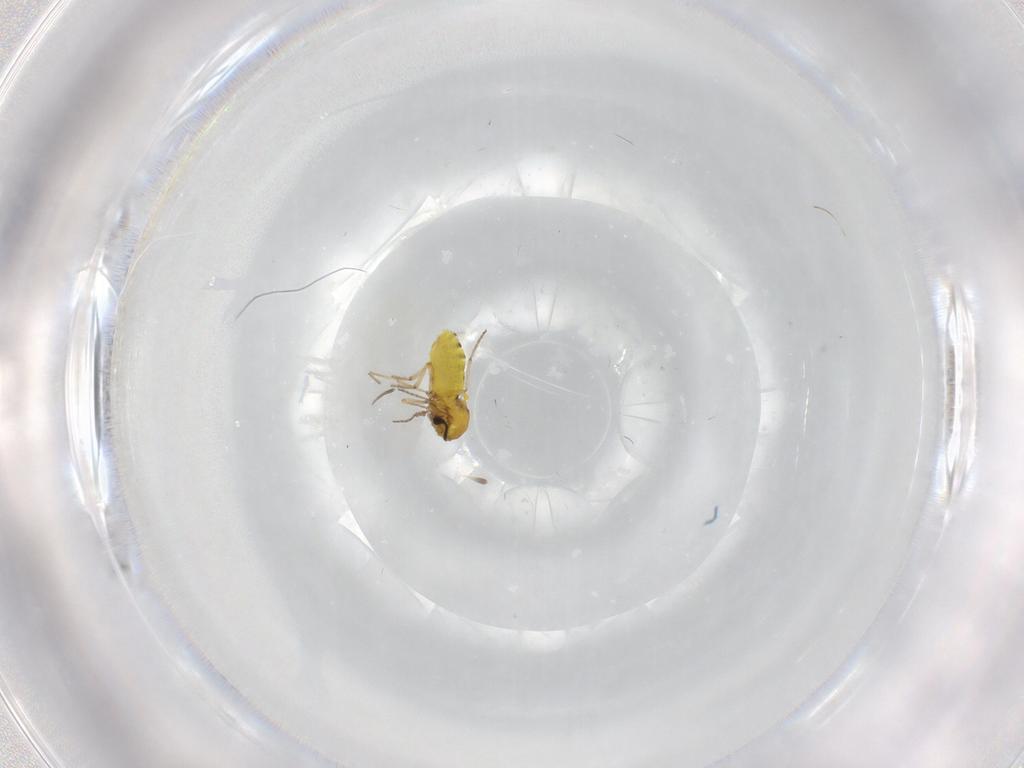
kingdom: Animalia
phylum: Arthropoda
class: Insecta
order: Diptera
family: Ceratopogonidae
